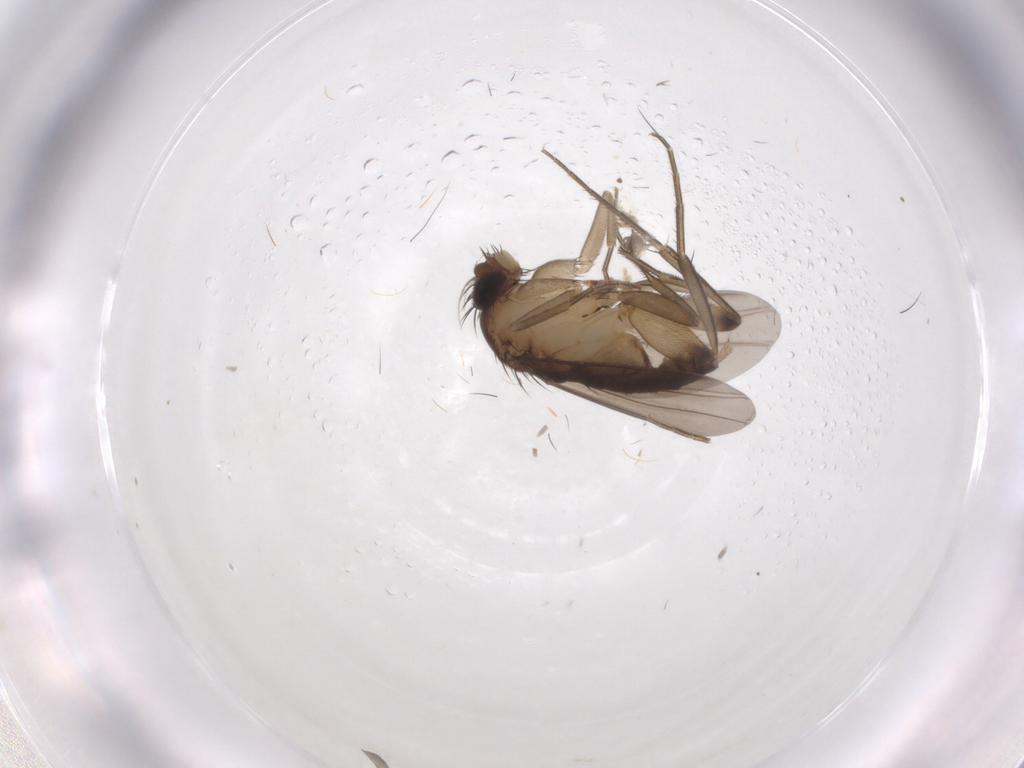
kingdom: Animalia
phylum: Arthropoda
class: Insecta
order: Diptera
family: Phoridae
